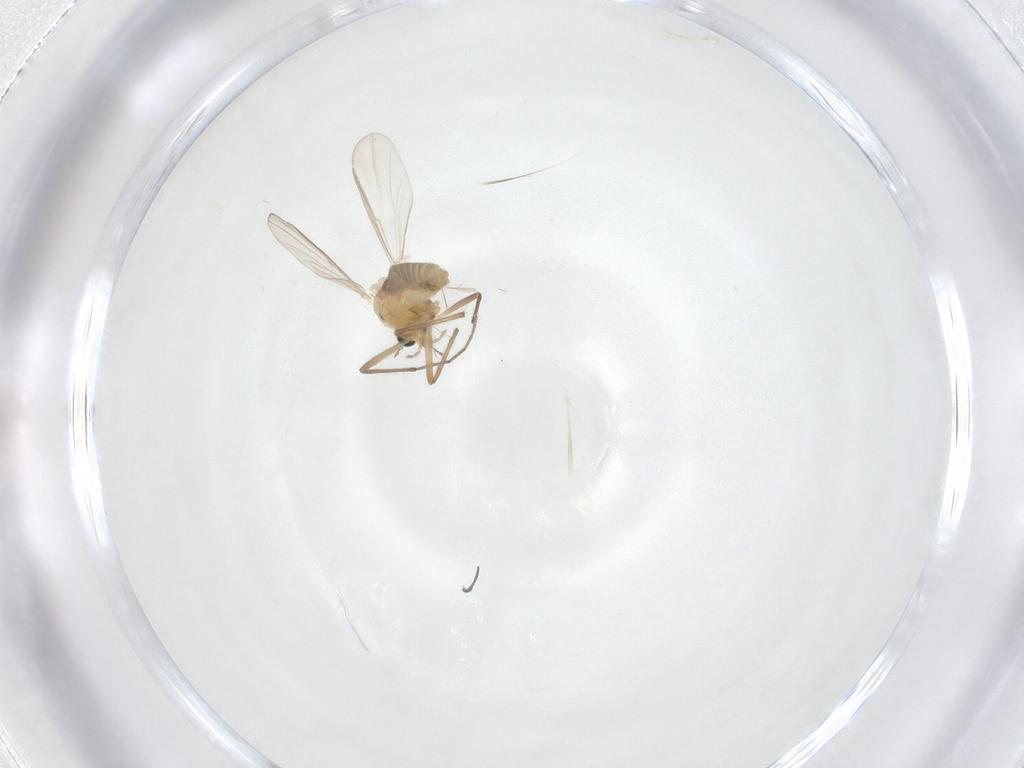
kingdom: Animalia
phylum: Arthropoda
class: Insecta
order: Diptera
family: Chironomidae
